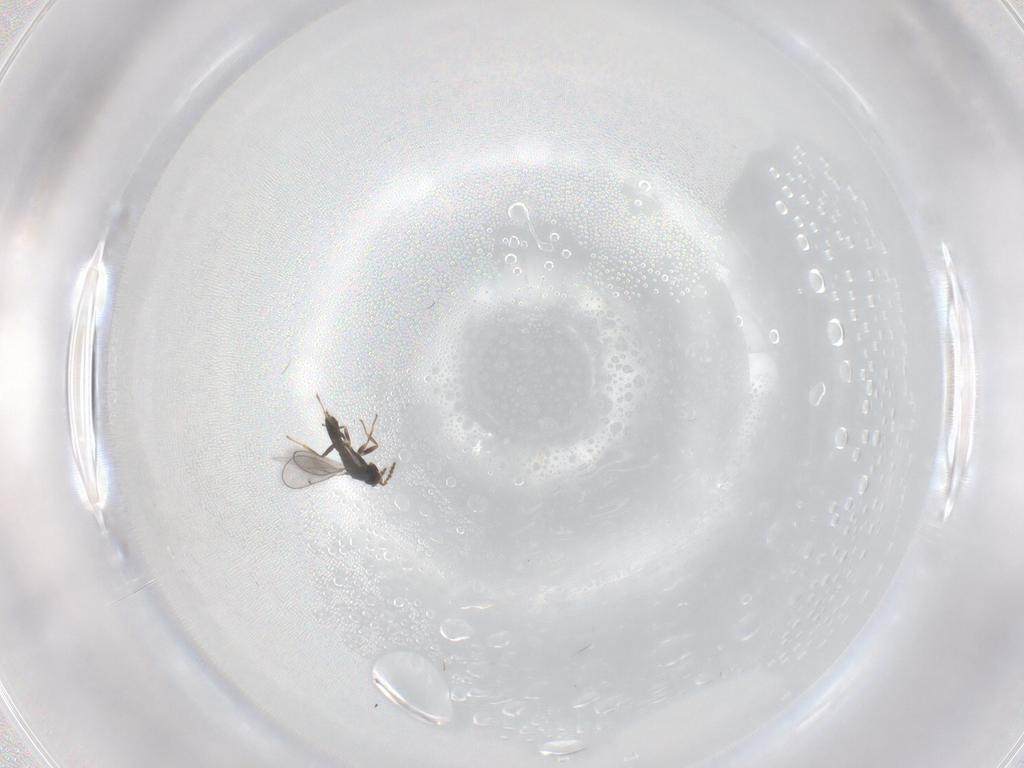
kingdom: Animalia
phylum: Arthropoda
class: Insecta
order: Hymenoptera
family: Eulophidae
